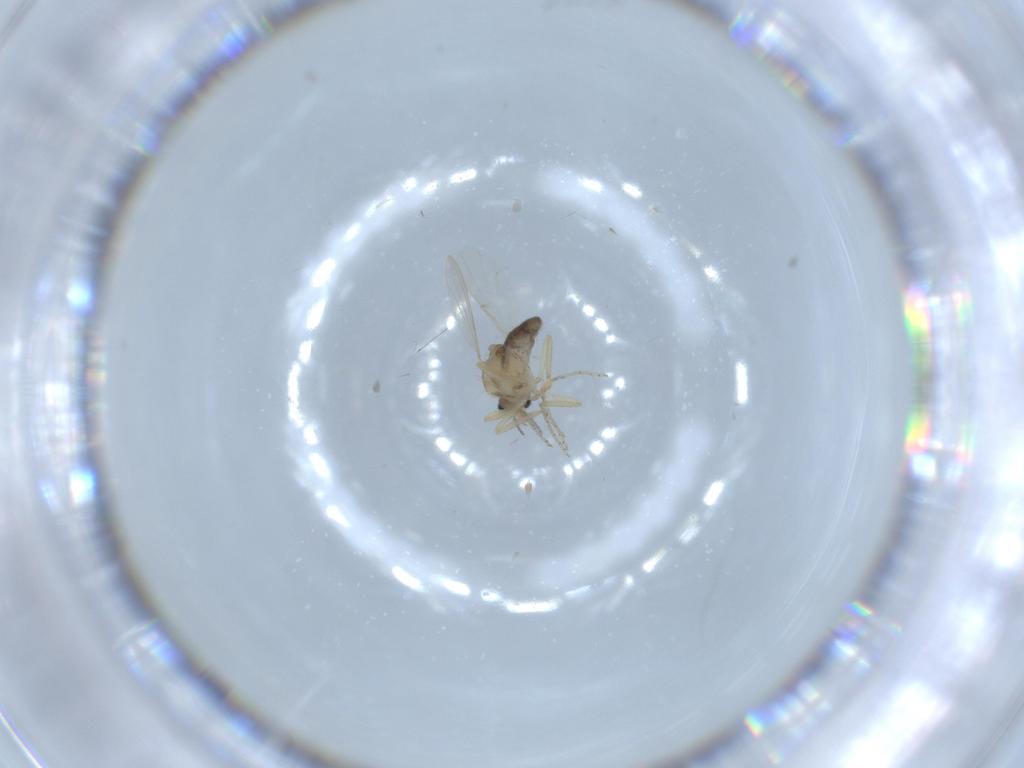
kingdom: Animalia
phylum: Arthropoda
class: Insecta
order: Diptera
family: Ceratopogonidae
